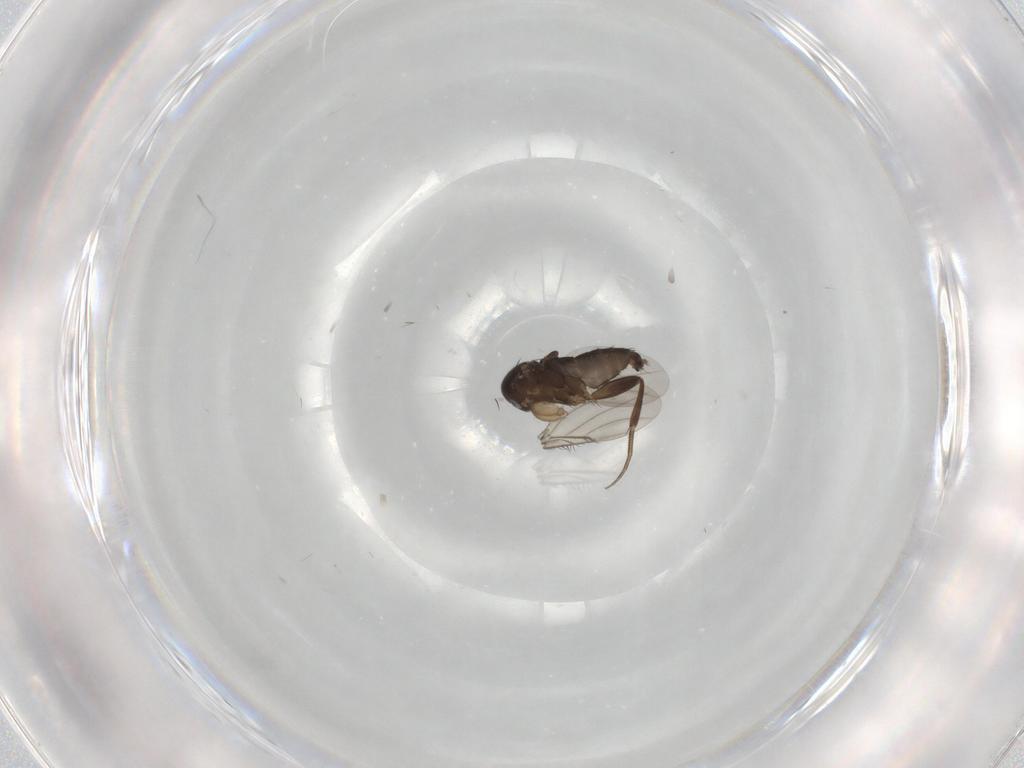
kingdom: Animalia
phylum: Arthropoda
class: Insecta
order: Diptera
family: Phoridae
